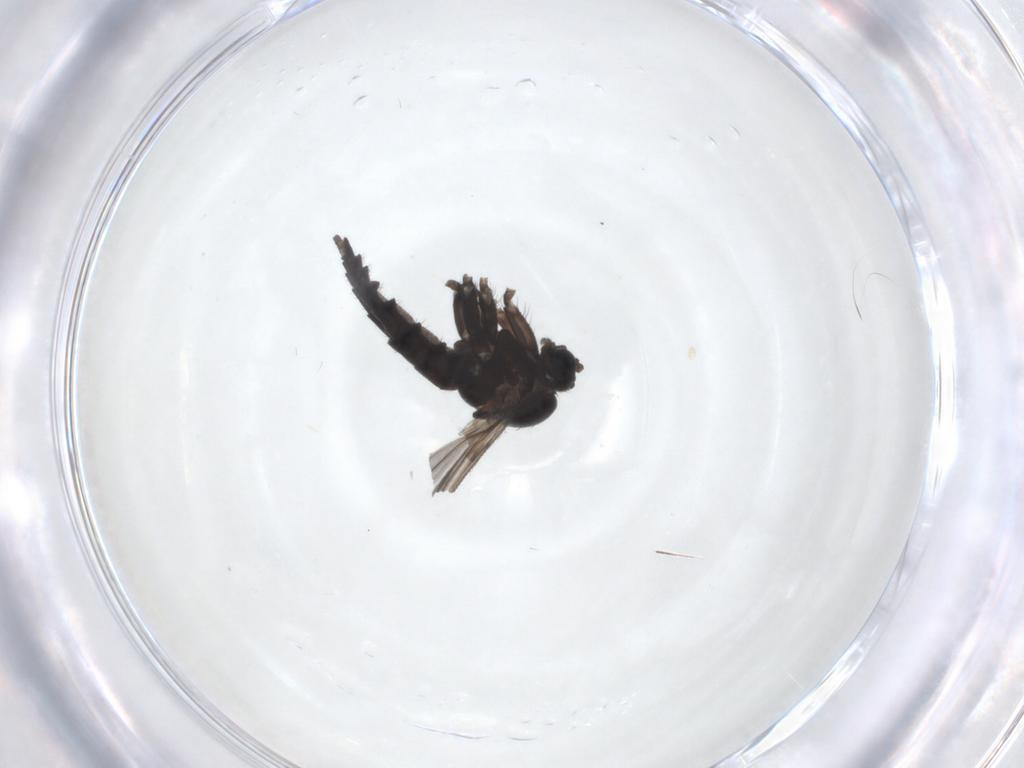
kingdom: Animalia
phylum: Arthropoda
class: Insecta
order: Diptera
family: Sciaridae
